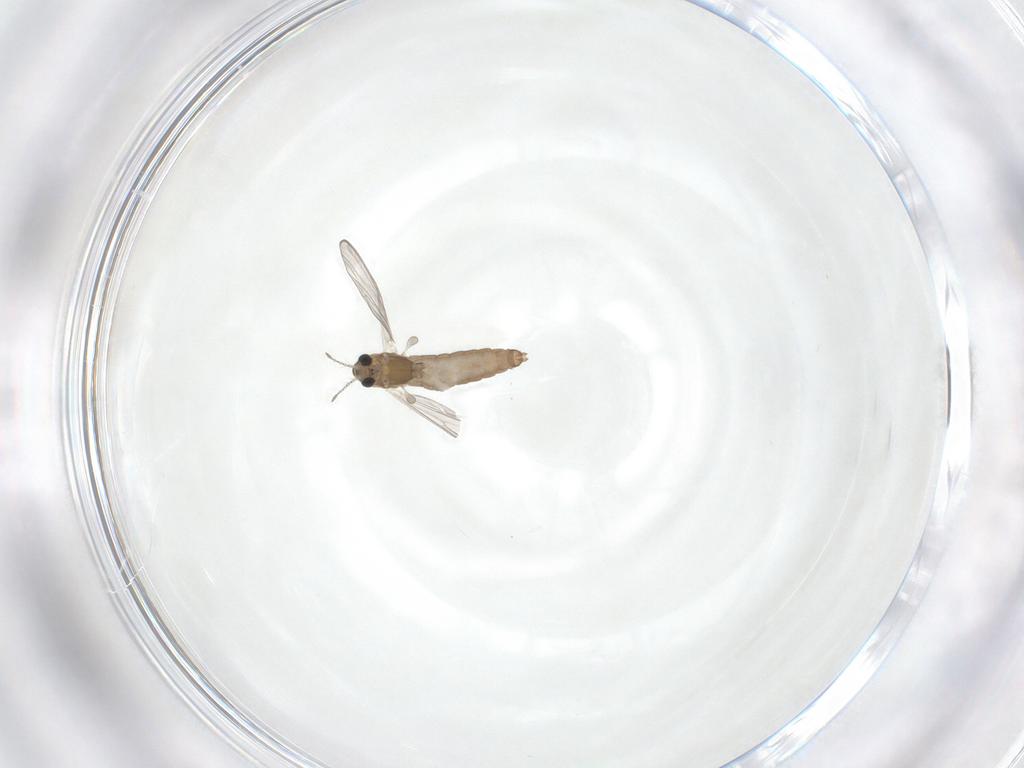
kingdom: Animalia
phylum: Arthropoda
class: Insecta
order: Diptera
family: Chironomidae
